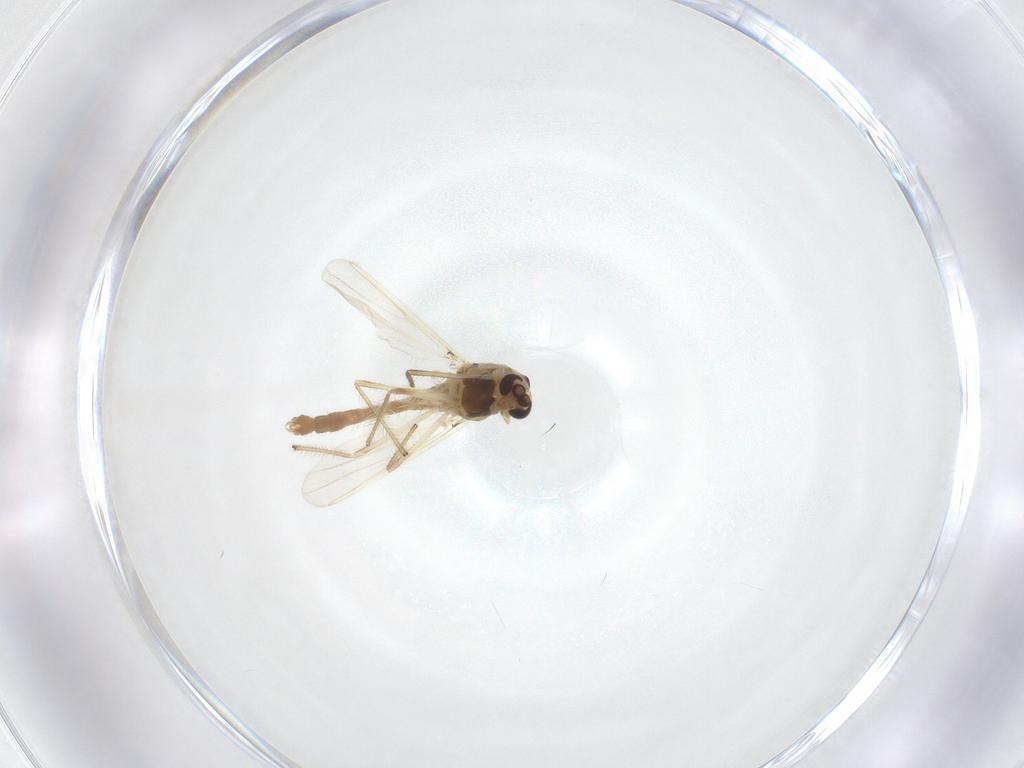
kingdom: Animalia
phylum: Arthropoda
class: Insecta
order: Diptera
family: Chironomidae
